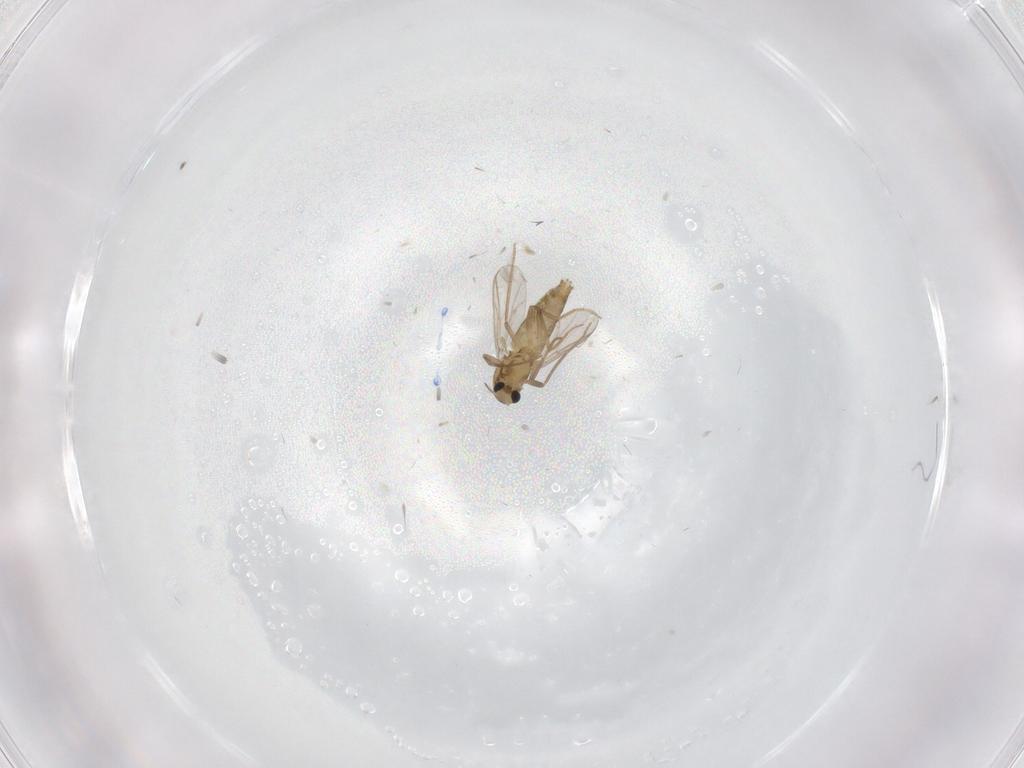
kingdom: Animalia
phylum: Arthropoda
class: Insecta
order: Diptera
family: Chironomidae
